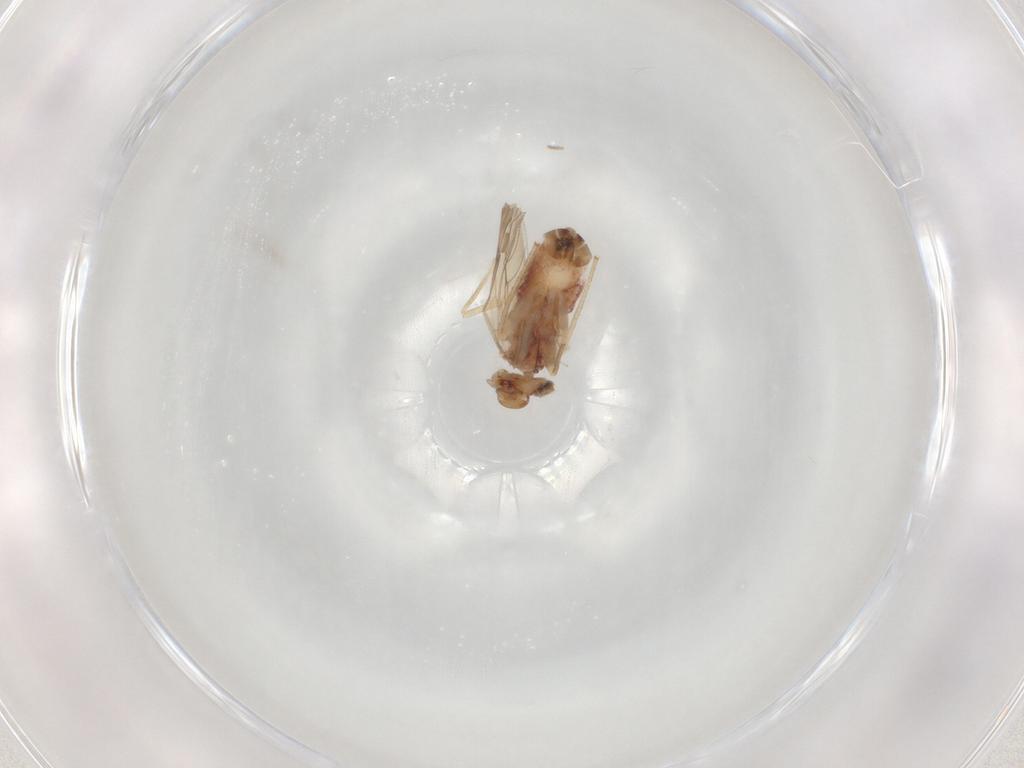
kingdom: Animalia
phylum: Arthropoda
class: Insecta
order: Psocodea
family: Lepidopsocidae
